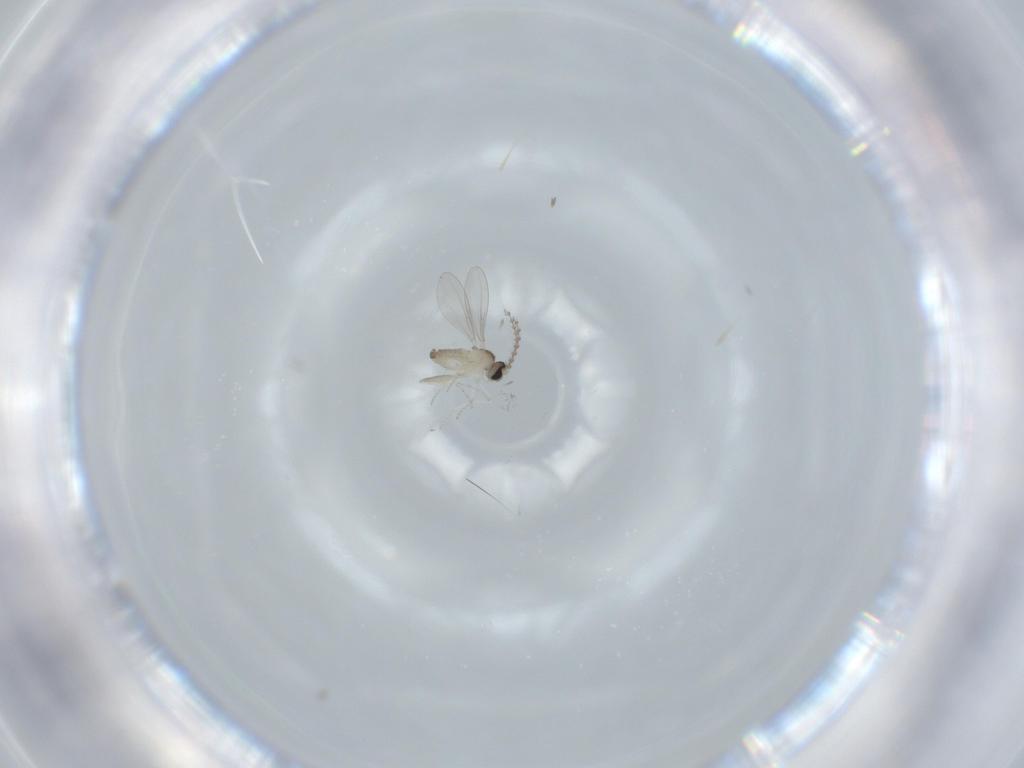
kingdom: Animalia
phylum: Arthropoda
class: Insecta
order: Diptera
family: Cecidomyiidae
